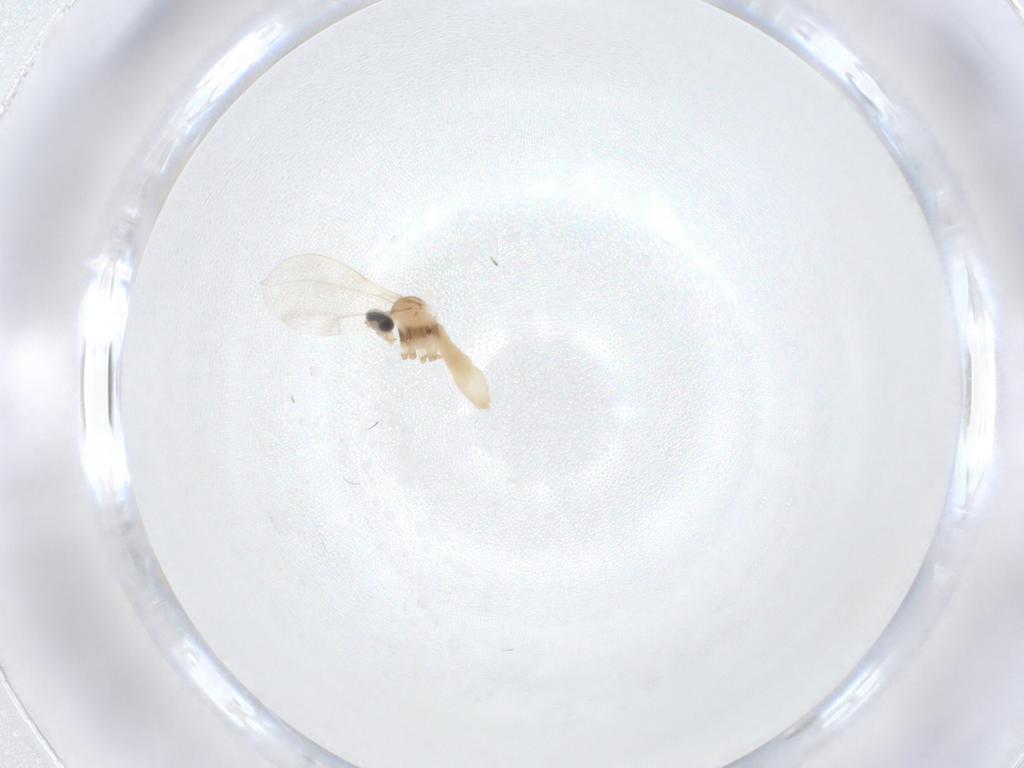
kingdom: Animalia
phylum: Arthropoda
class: Insecta
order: Diptera
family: Cecidomyiidae
